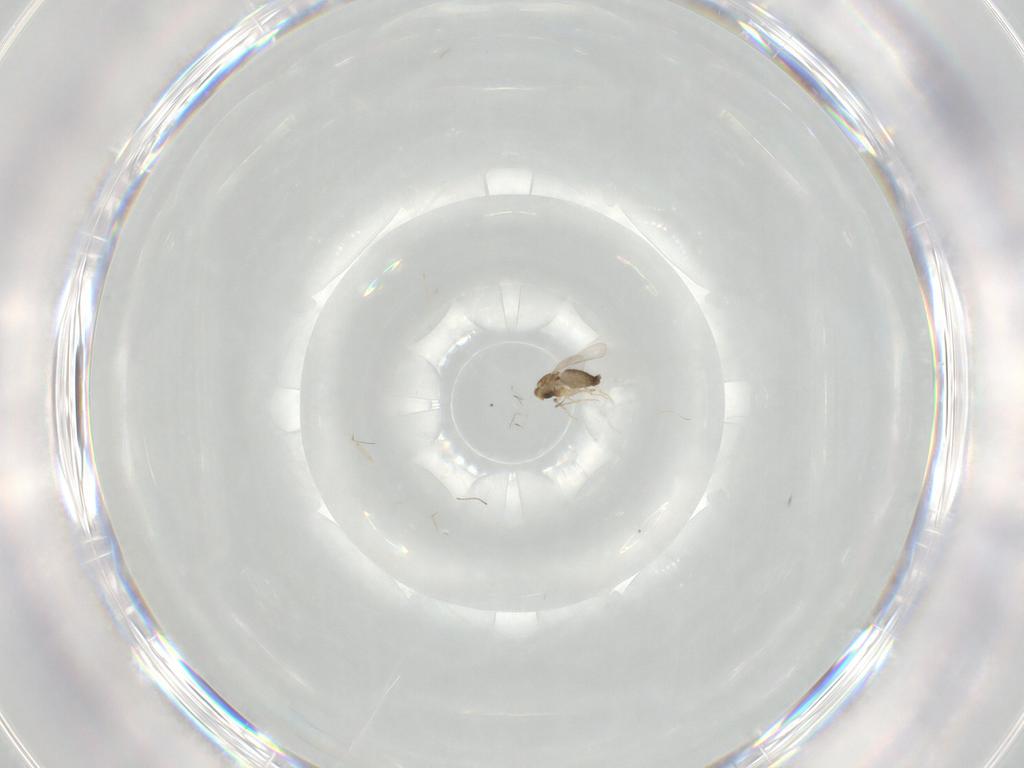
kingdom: Animalia
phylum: Arthropoda
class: Insecta
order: Diptera
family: Ceratopogonidae
